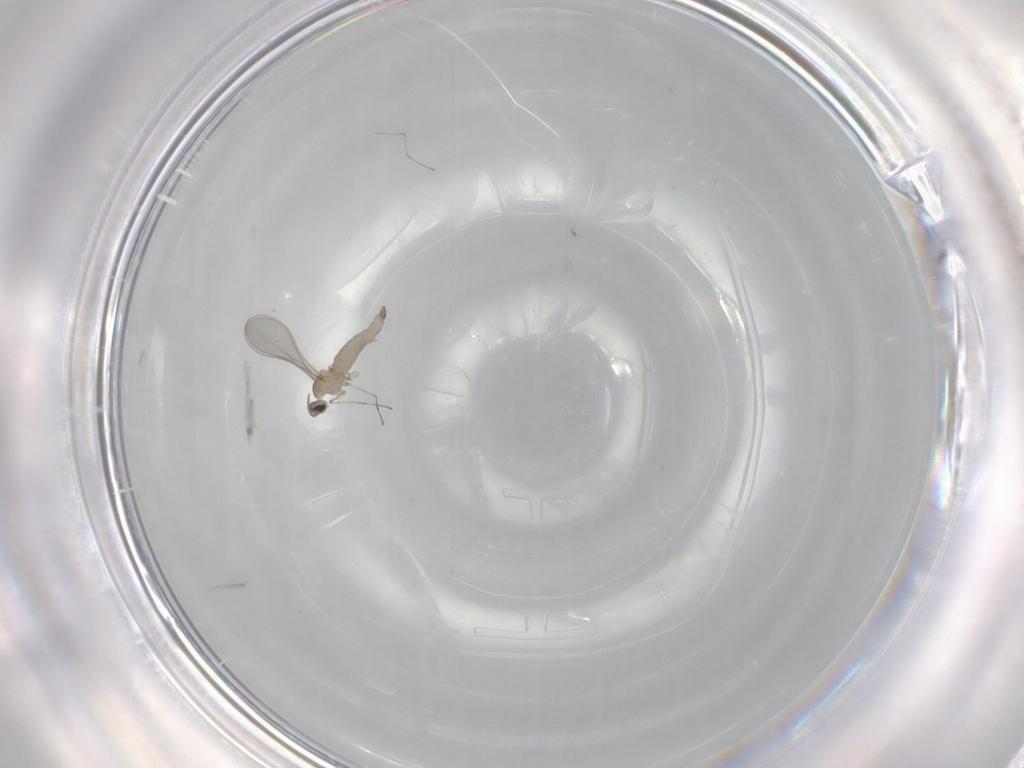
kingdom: Animalia
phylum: Arthropoda
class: Insecta
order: Diptera
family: Cecidomyiidae
